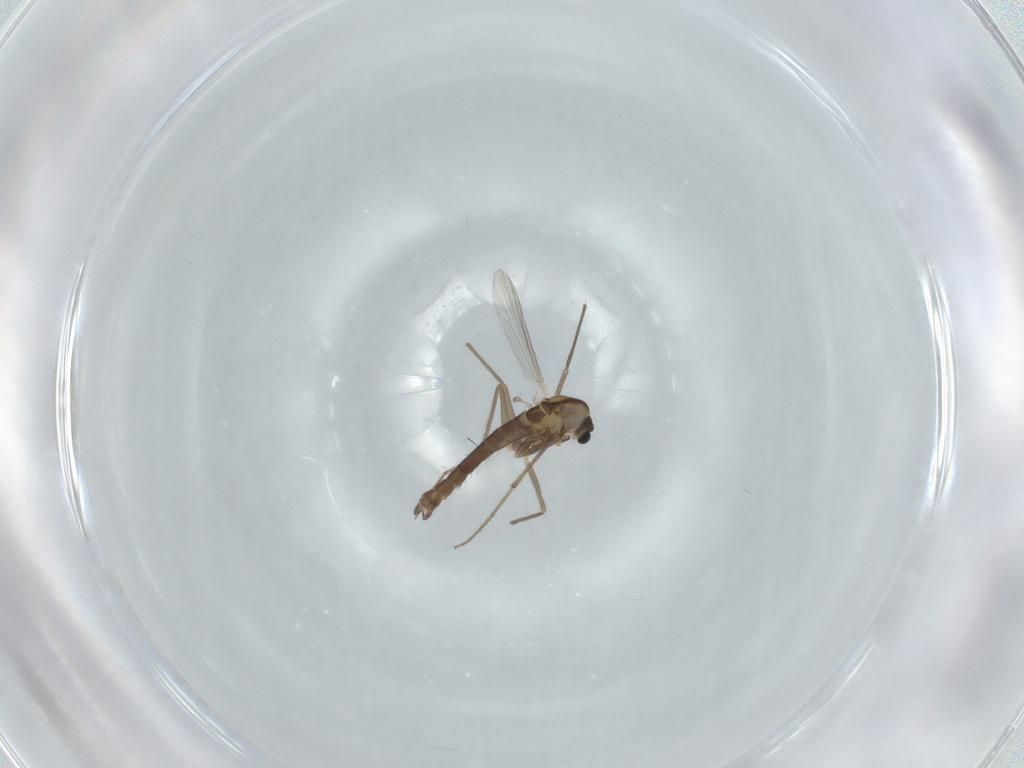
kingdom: Animalia
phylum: Arthropoda
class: Insecta
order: Diptera
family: Chironomidae
